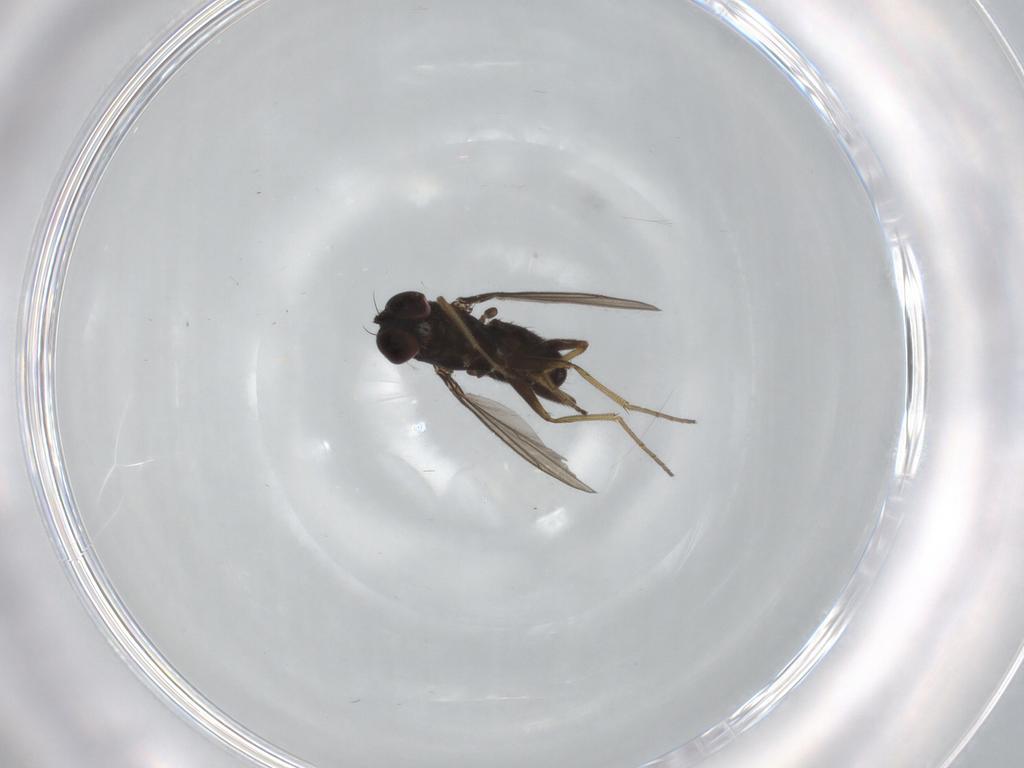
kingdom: Animalia
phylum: Arthropoda
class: Insecta
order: Diptera
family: Dolichopodidae
